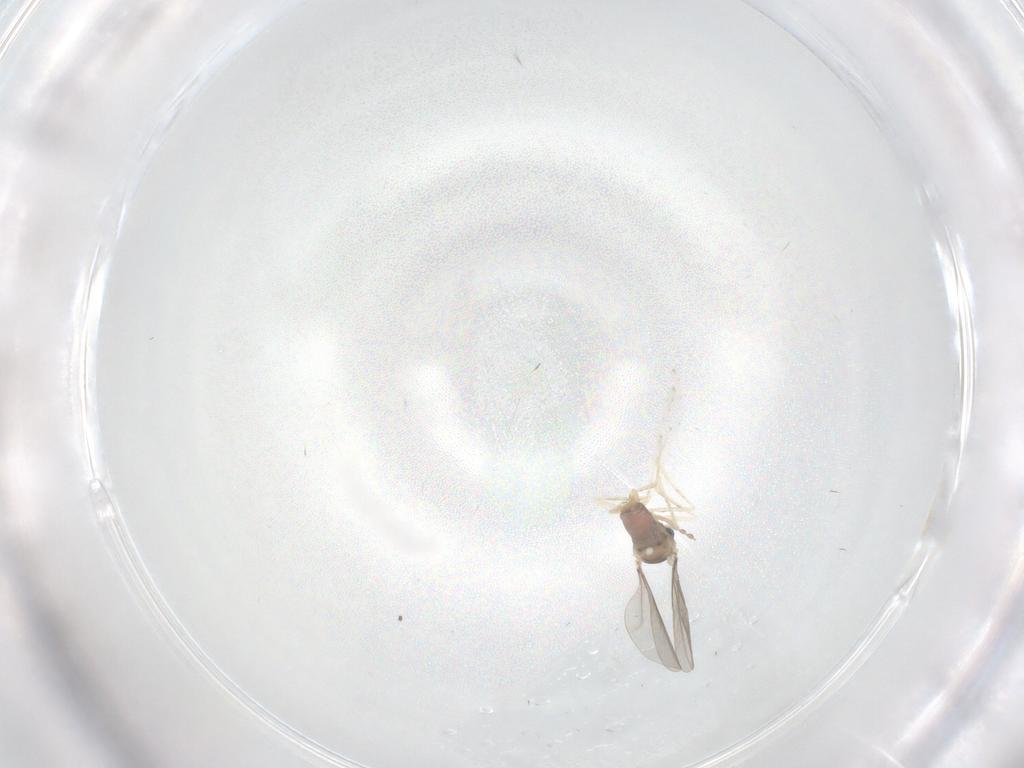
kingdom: Animalia
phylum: Arthropoda
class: Insecta
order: Diptera
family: Cecidomyiidae
